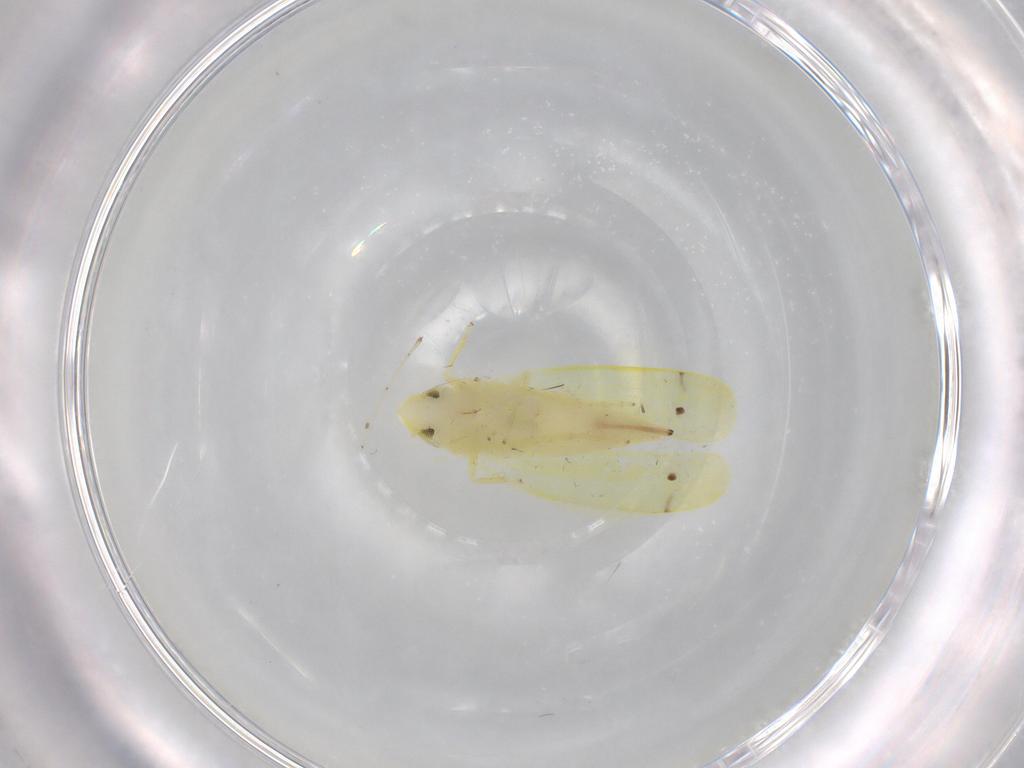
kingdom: Animalia
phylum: Arthropoda
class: Insecta
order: Hemiptera
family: Cicadellidae
